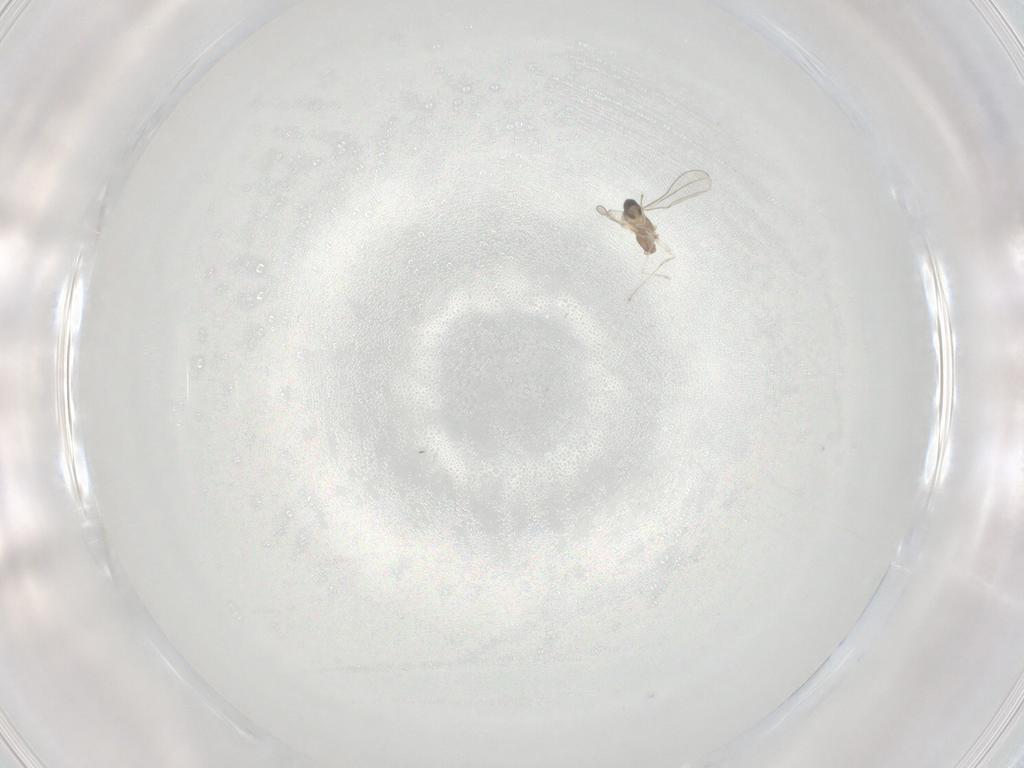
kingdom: Animalia
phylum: Arthropoda
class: Insecta
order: Diptera
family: Cecidomyiidae
